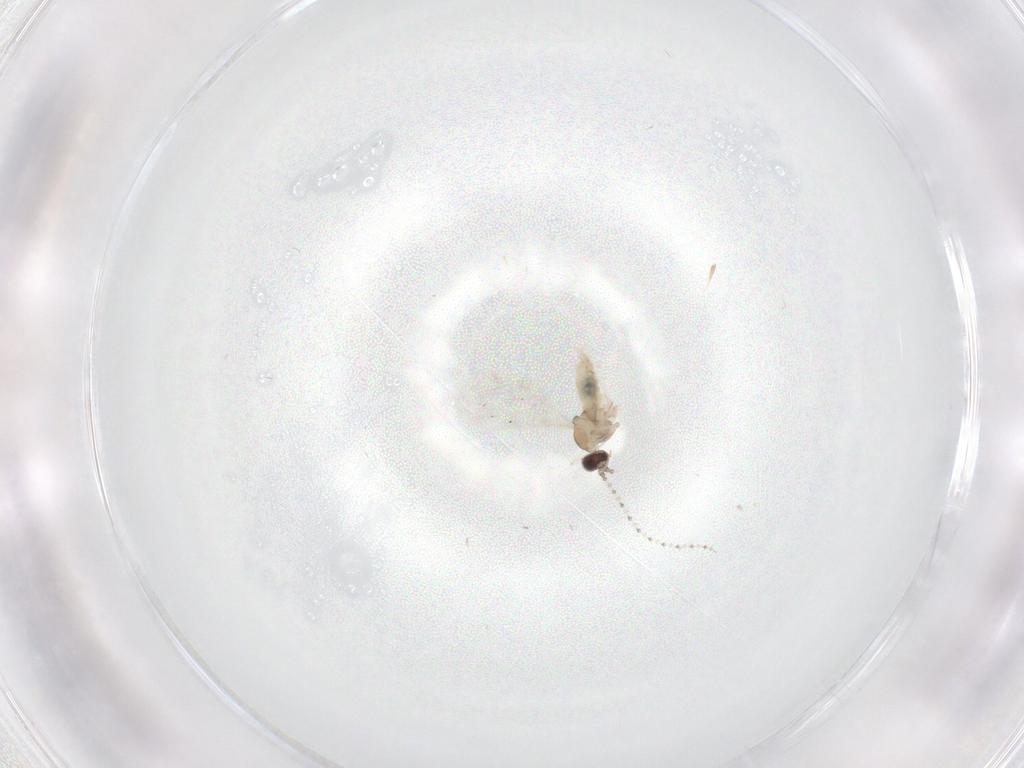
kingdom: Animalia
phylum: Arthropoda
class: Insecta
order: Diptera
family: Cecidomyiidae
